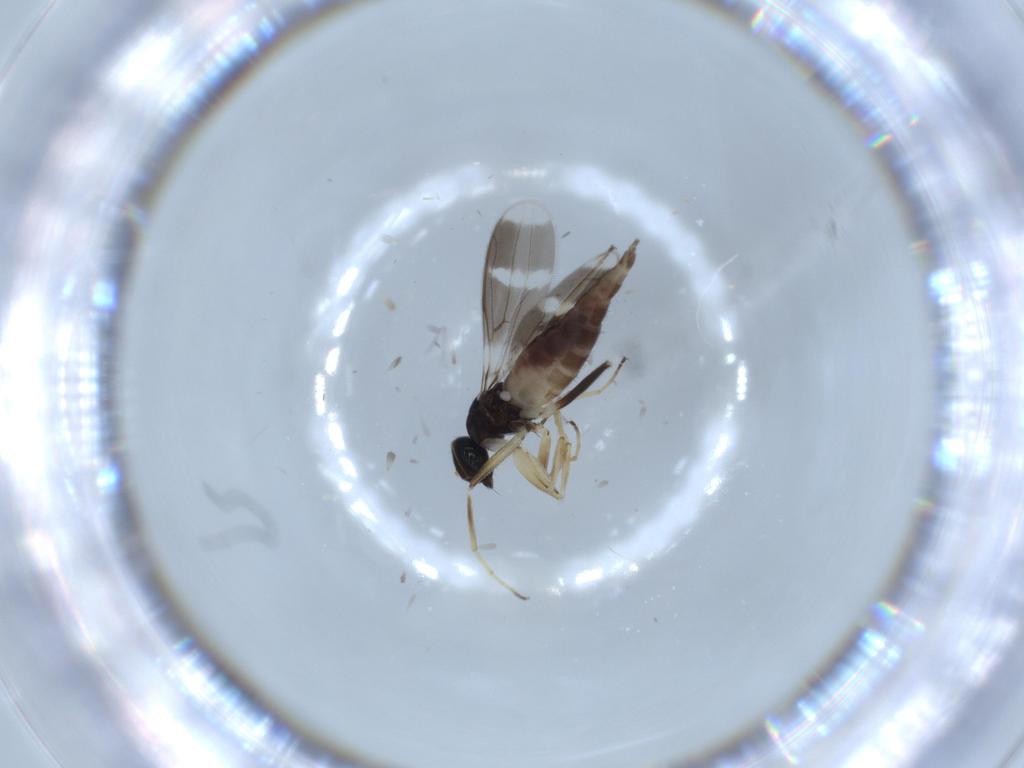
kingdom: Animalia
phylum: Arthropoda
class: Insecta
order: Diptera
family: Hybotidae
